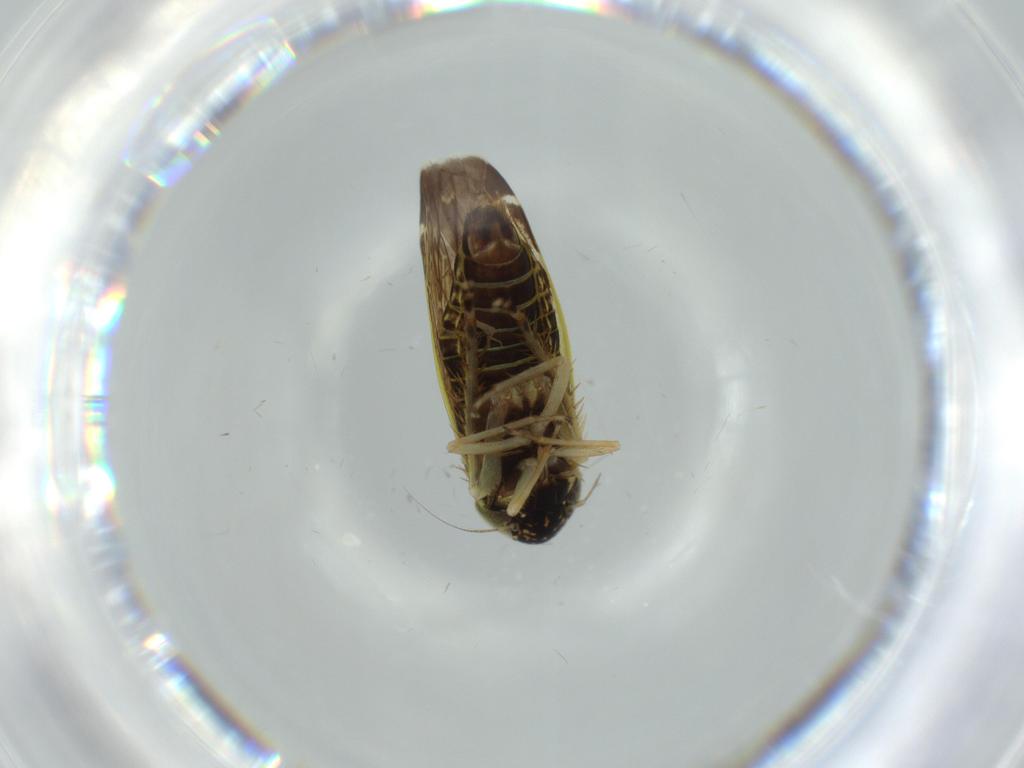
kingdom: Animalia
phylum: Arthropoda
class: Insecta
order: Hemiptera
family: Cicadellidae
